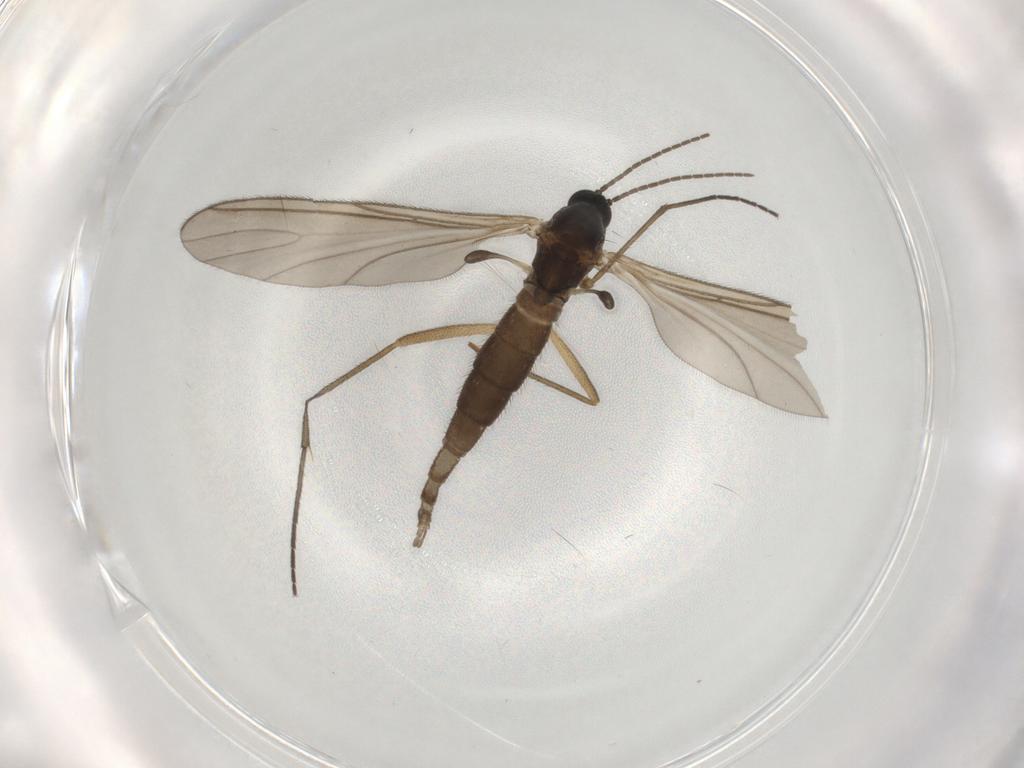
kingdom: Animalia
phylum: Arthropoda
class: Insecta
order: Diptera
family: Sciaridae
